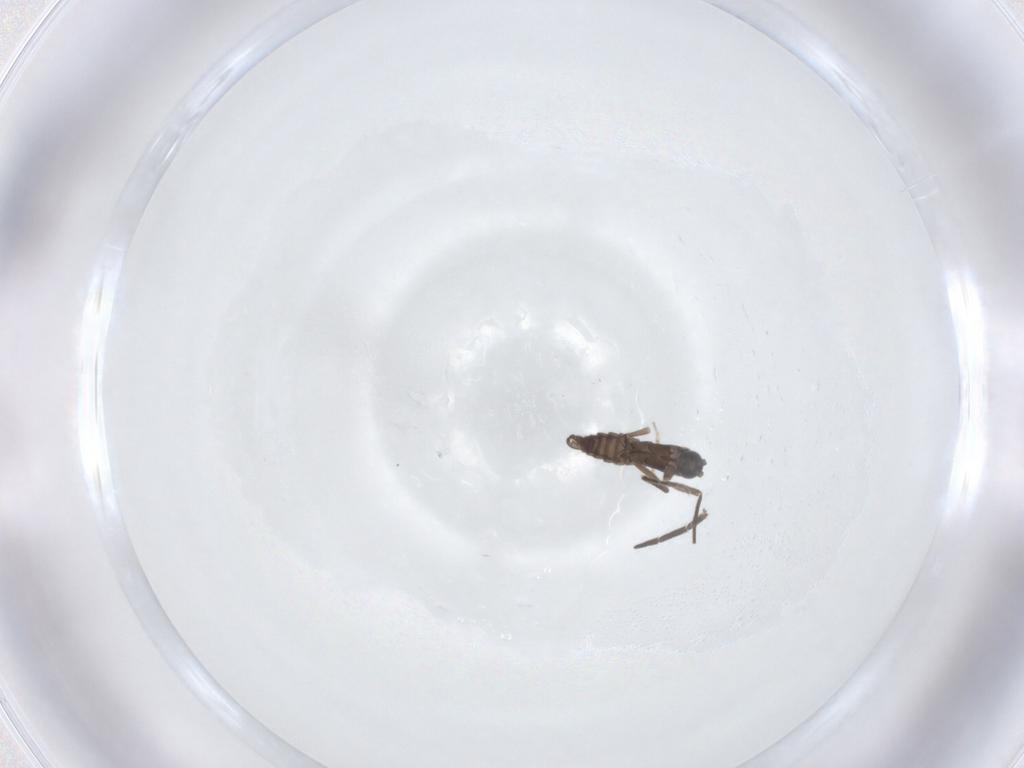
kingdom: Animalia
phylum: Arthropoda
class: Insecta
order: Diptera
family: Sciaridae
